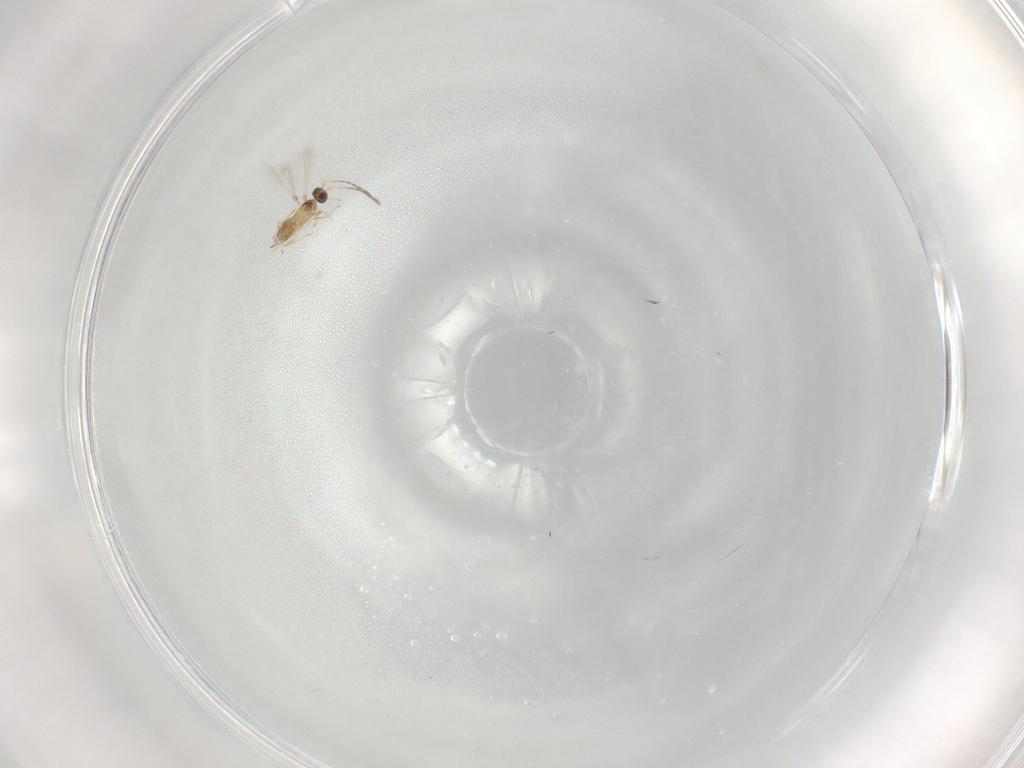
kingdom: Animalia
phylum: Arthropoda
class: Insecta
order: Hymenoptera
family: Mymaridae
